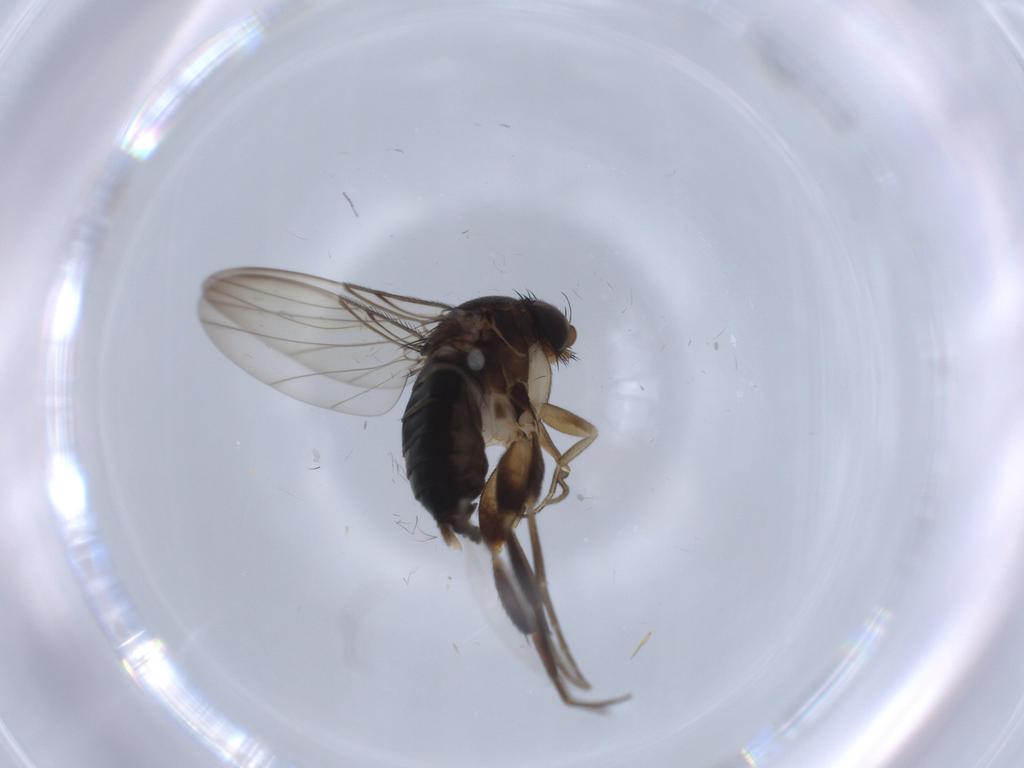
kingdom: Animalia
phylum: Arthropoda
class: Insecta
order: Diptera
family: Phoridae
